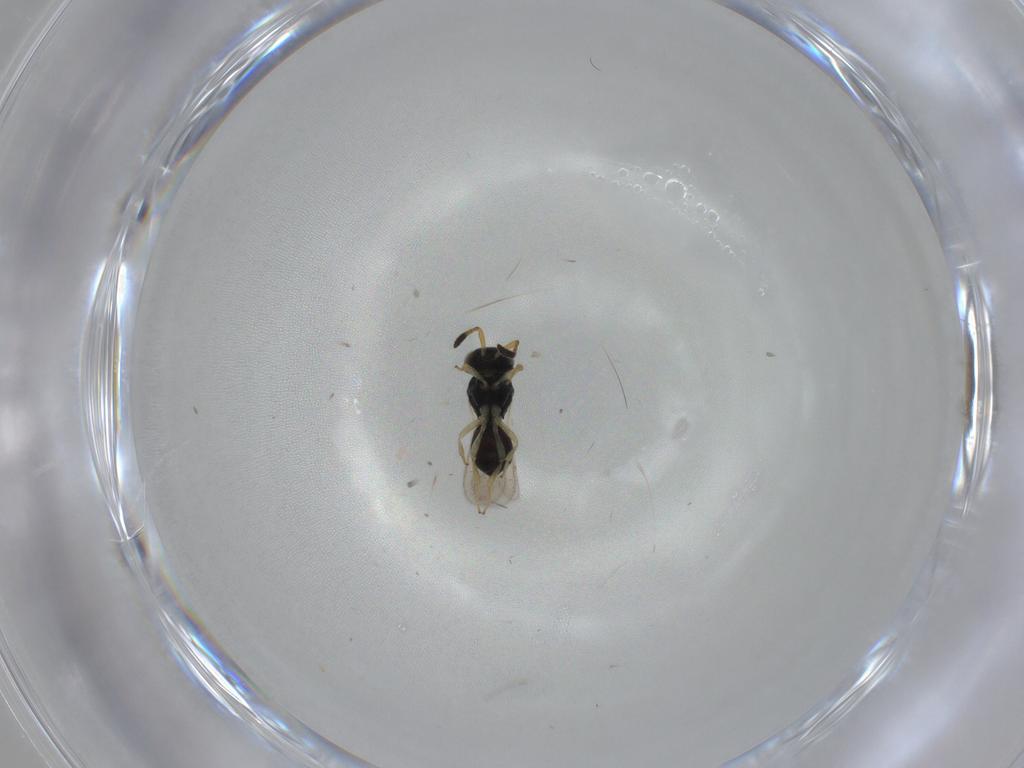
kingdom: Animalia
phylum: Arthropoda
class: Insecta
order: Hymenoptera
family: Scelionidae
